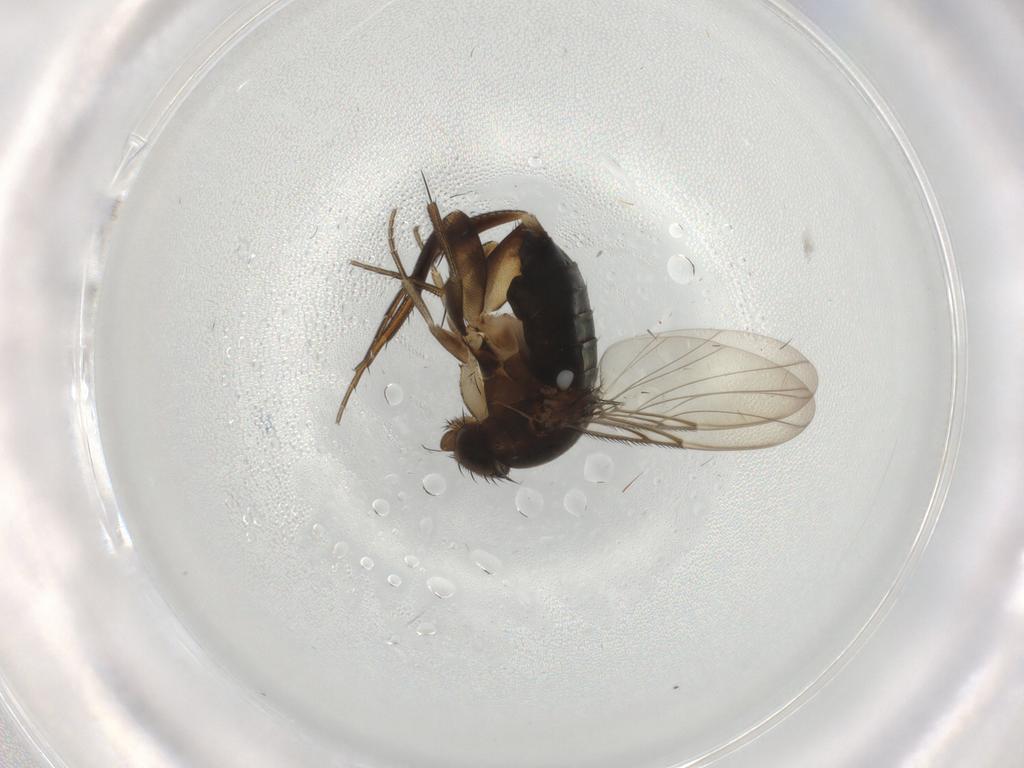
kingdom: Animalia
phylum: Arthropoda
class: Insecta
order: Diptera
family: Phoridae
